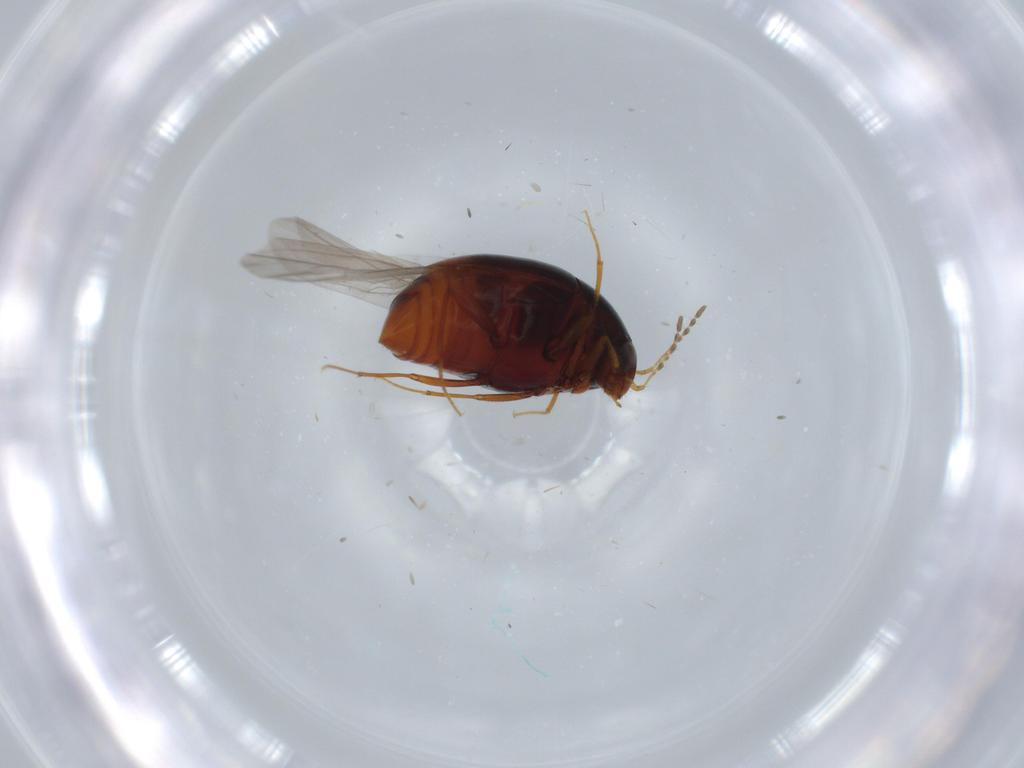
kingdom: Animalia
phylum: Arthropoda
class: Insecta
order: Coleoptera
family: Staphylinidae
